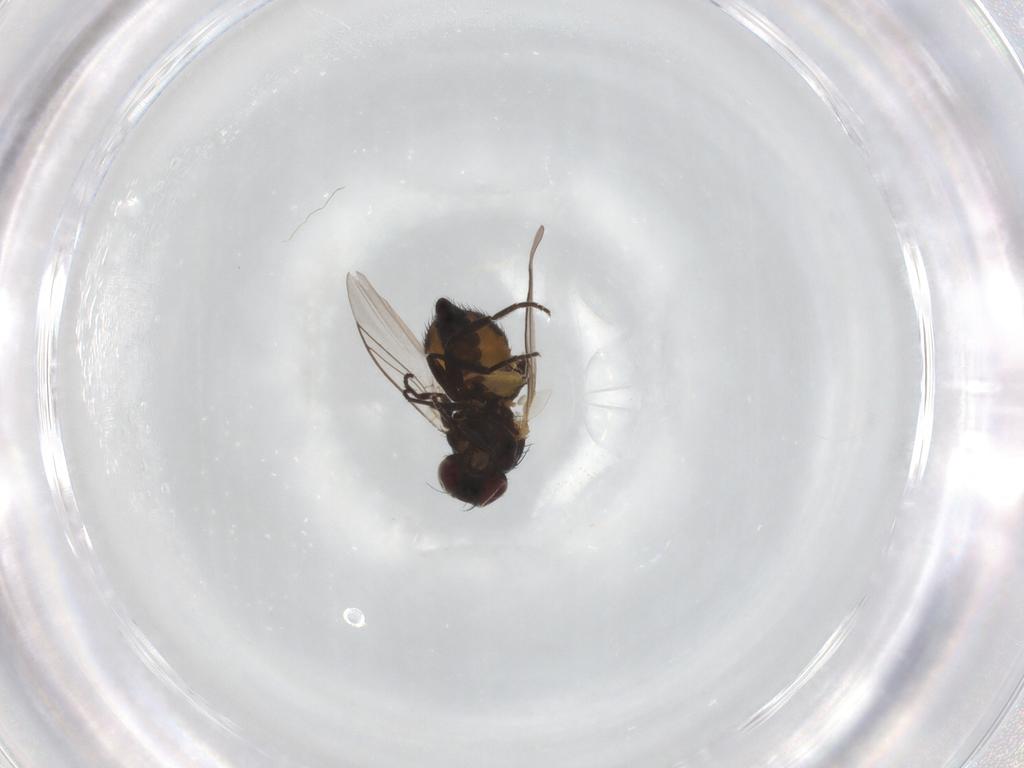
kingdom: Animalia
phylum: Arthropoda
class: Insecta
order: Diptera
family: Agromyzidae
